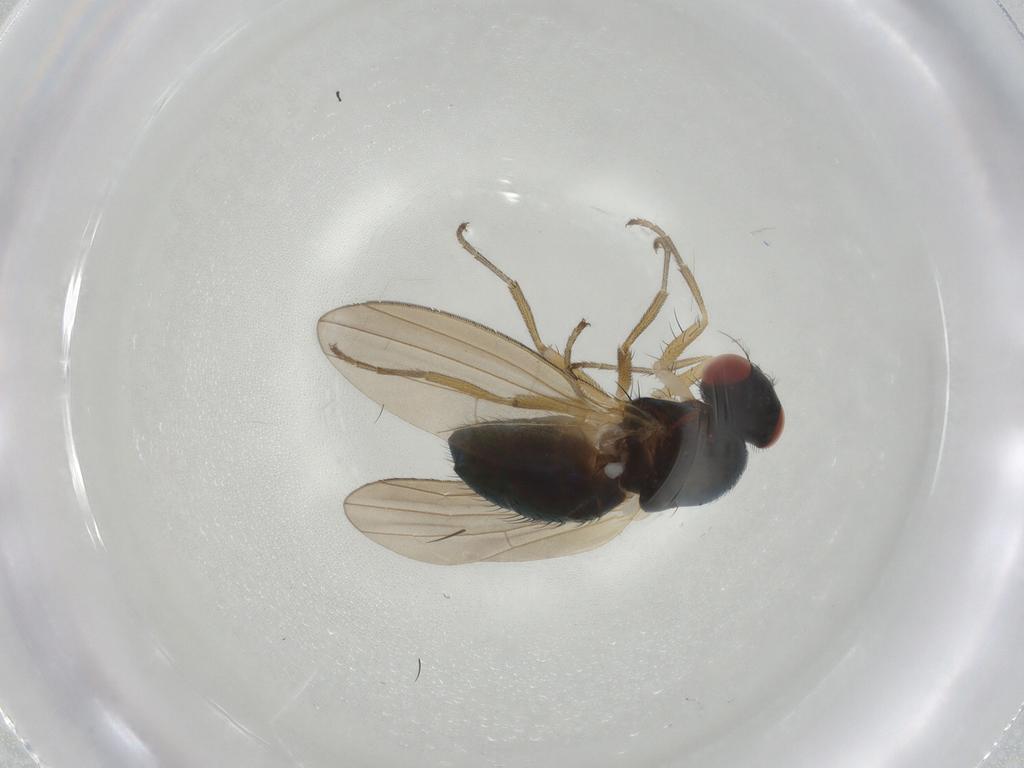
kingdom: Animalia
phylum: Arthropoda
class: Insecta
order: Diptera
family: Camillidae
